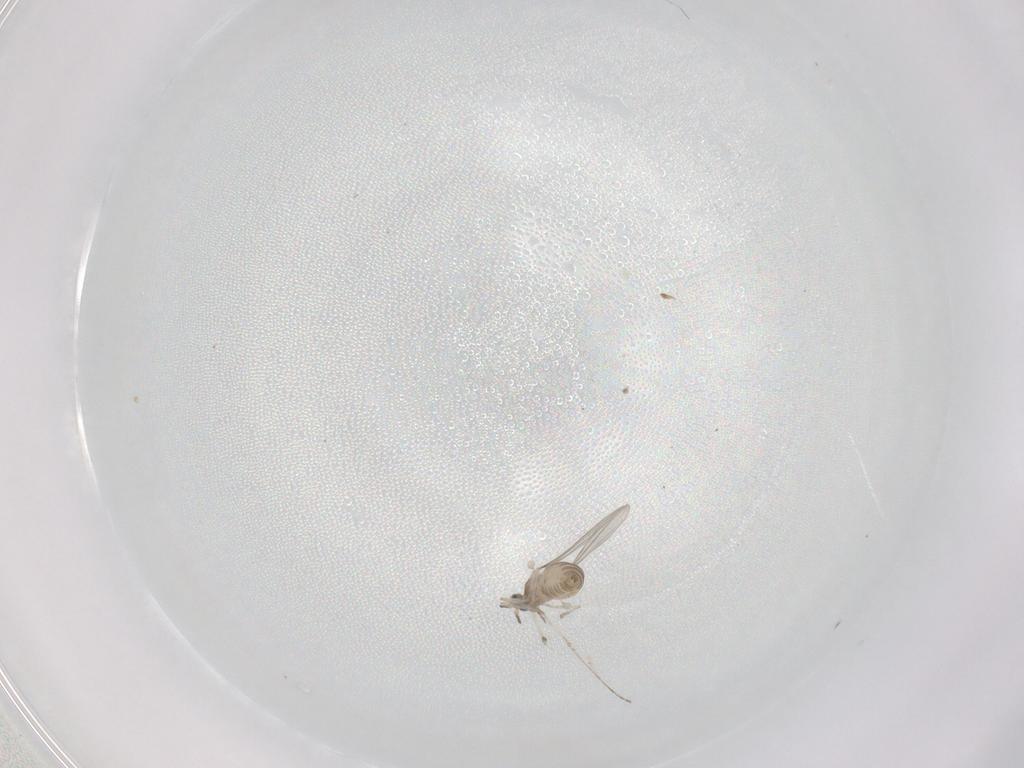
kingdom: Animalia
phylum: Arthropoda
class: Insecta
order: Diptera
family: Cecidomyiidae
